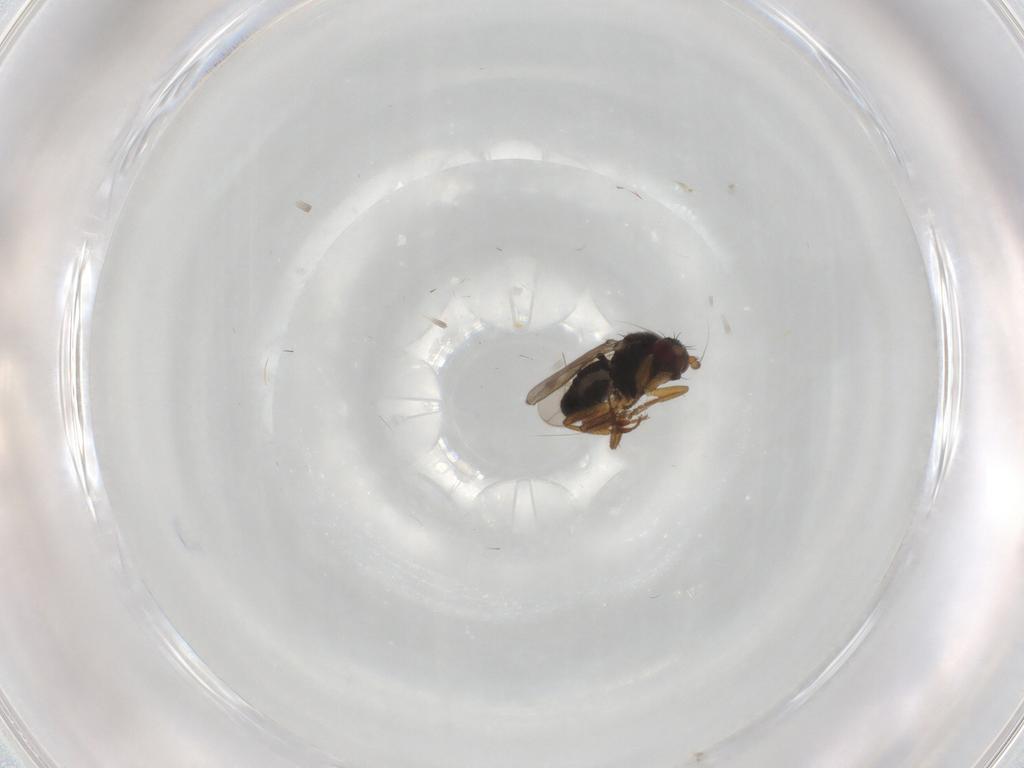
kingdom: Animalia
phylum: Arthropoda
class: Insecta
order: Diptera
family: Sphaeroceridae
